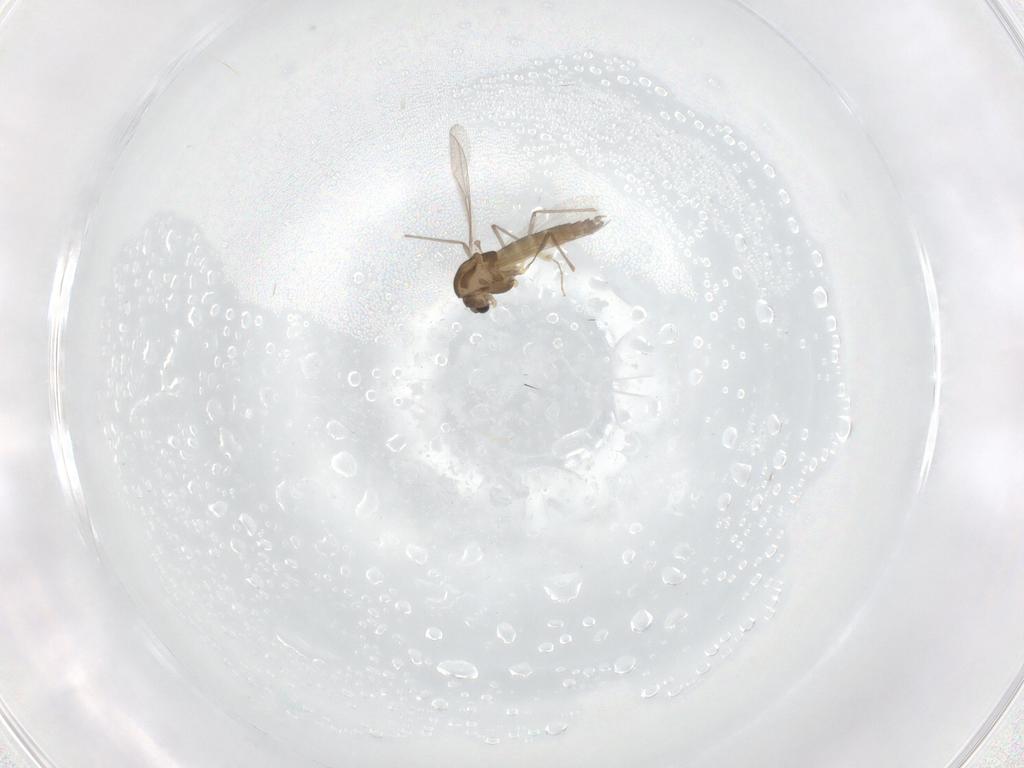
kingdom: Animalia
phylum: Arthropoda
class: Insecta
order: Diptera
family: Chironomidae
